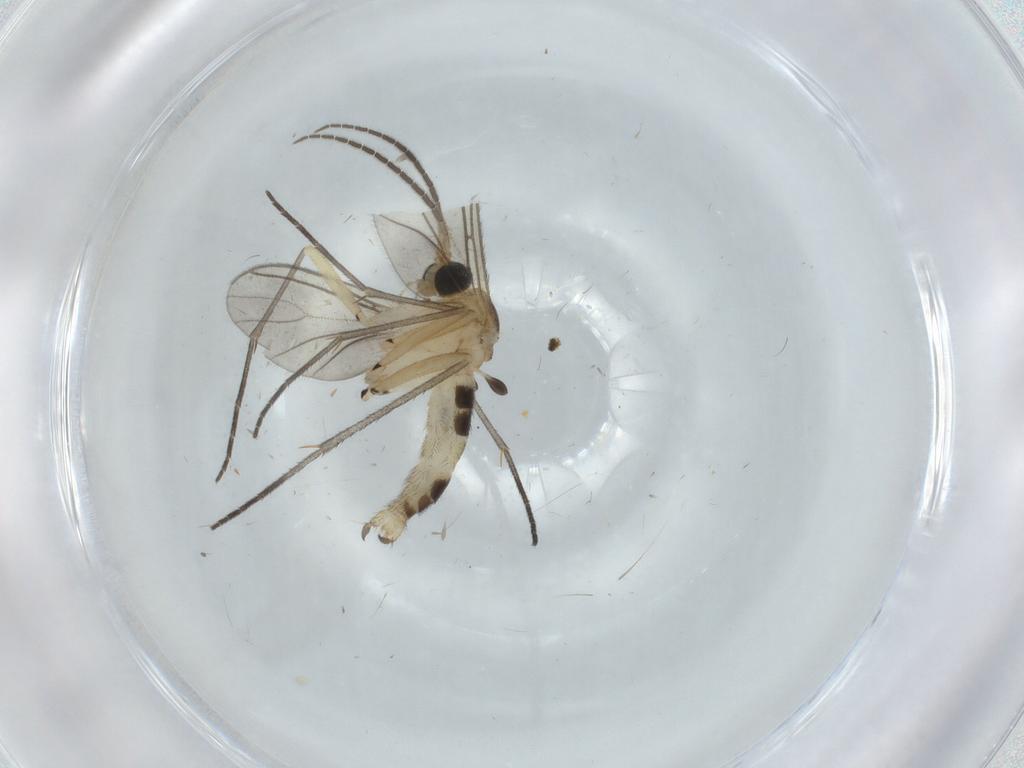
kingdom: Animalia
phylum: Arthropoda
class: Insecta
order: Diptera
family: Sciaridae
